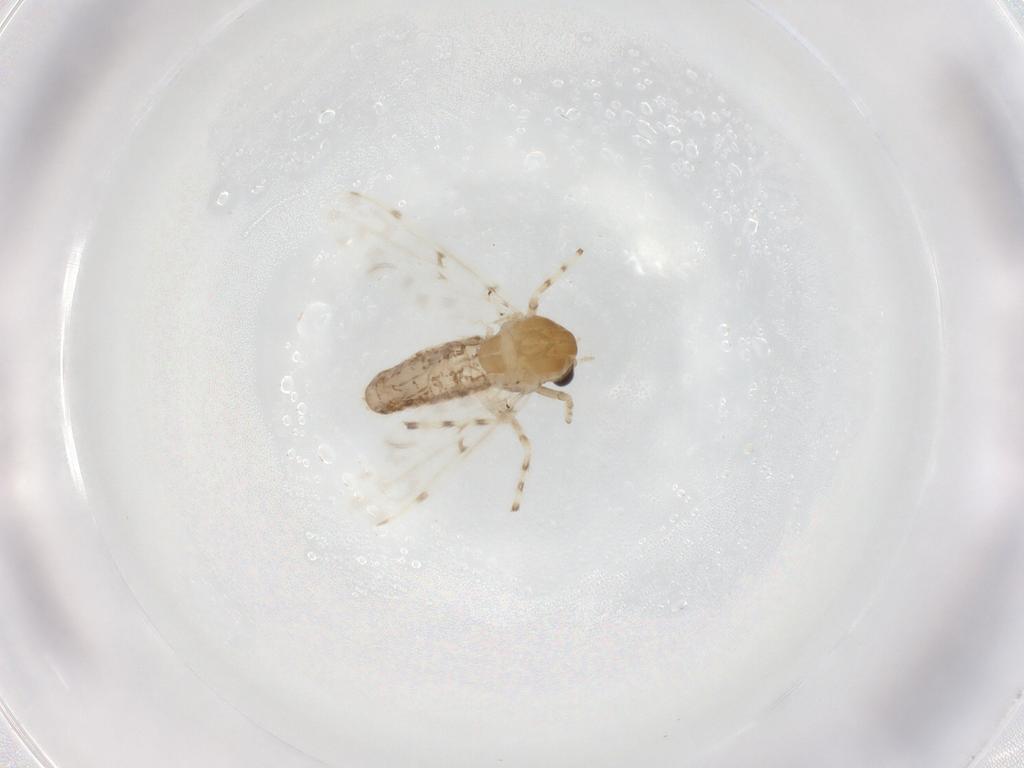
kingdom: Animalia
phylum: Arthropoda
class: Insecta
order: Diptera
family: Chironomidae
